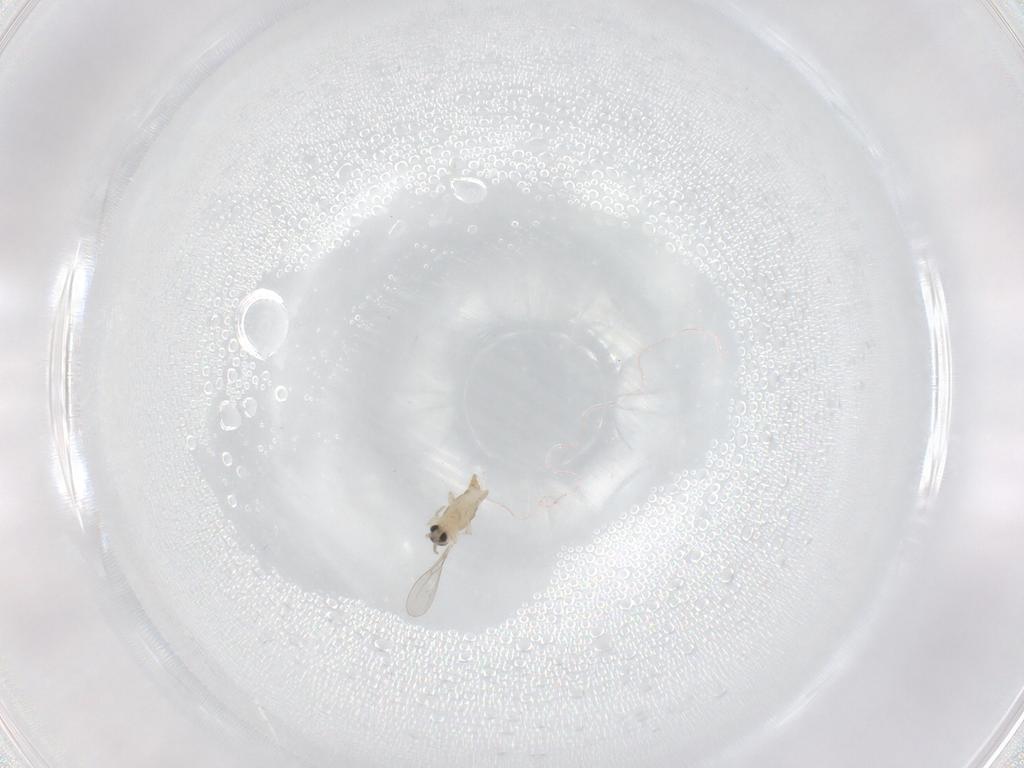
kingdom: Animalia
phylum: Arthropoda
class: Insecta
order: Diptera
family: Cecidomyiidae
